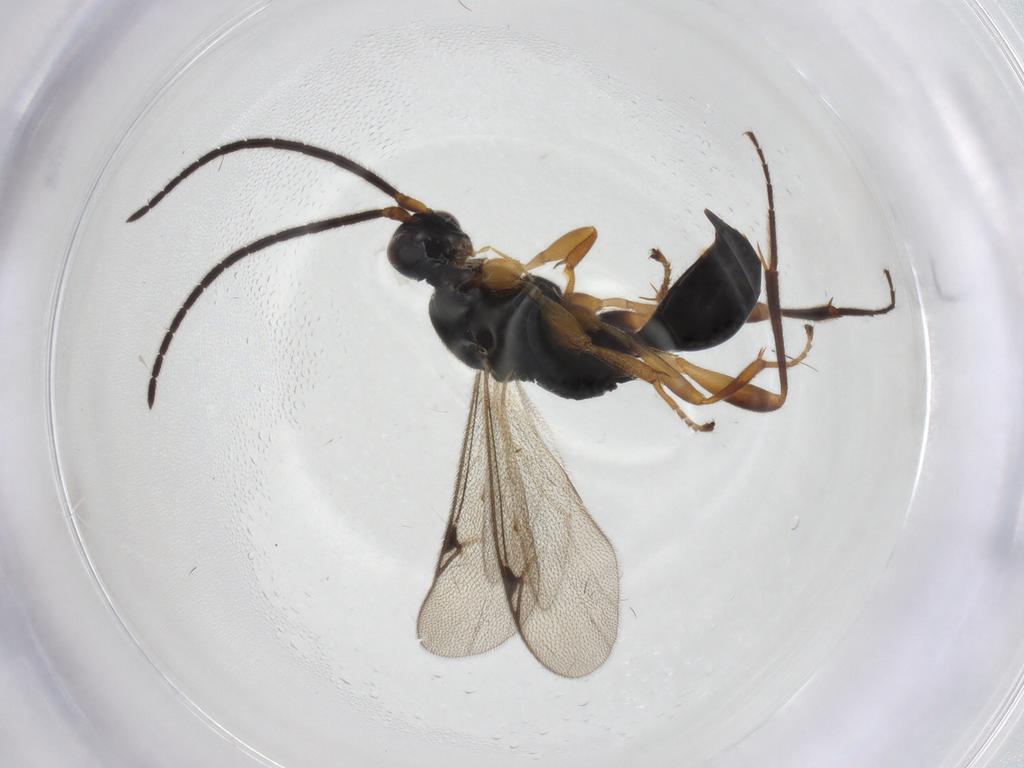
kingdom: Animalia
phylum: Arthropoda
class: Insecta
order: Hymenoptera
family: Proctotrupidae
